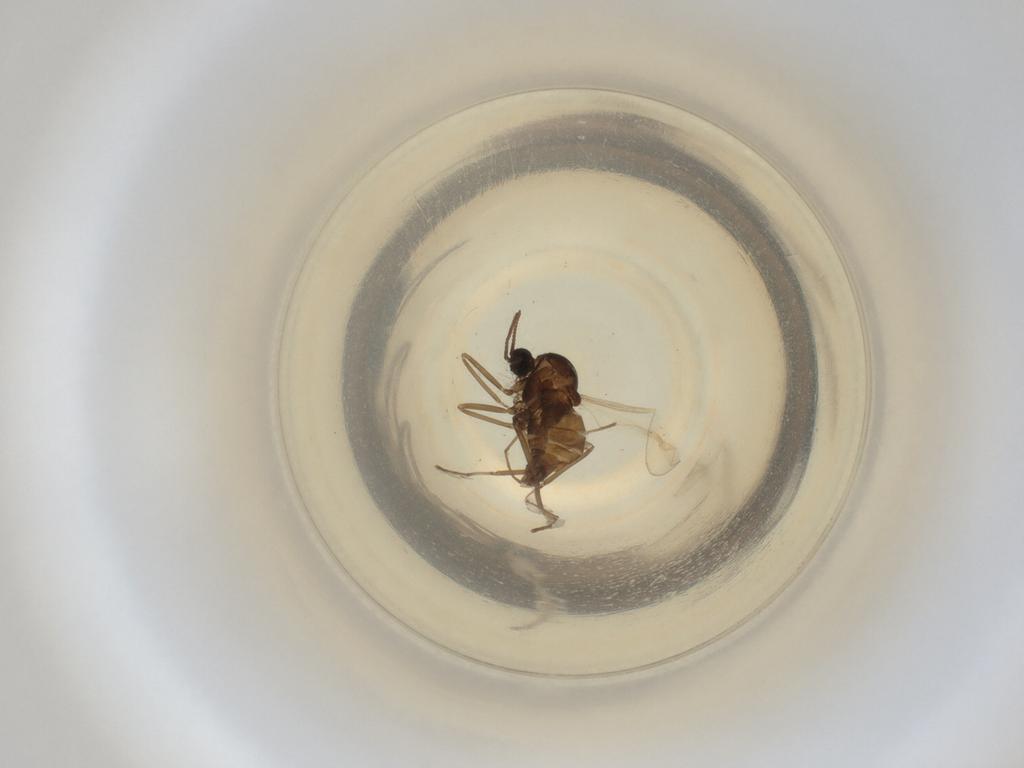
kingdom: Animalia
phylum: Arthropoda
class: Insecta
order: Diptera
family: Cecidomyiidae
